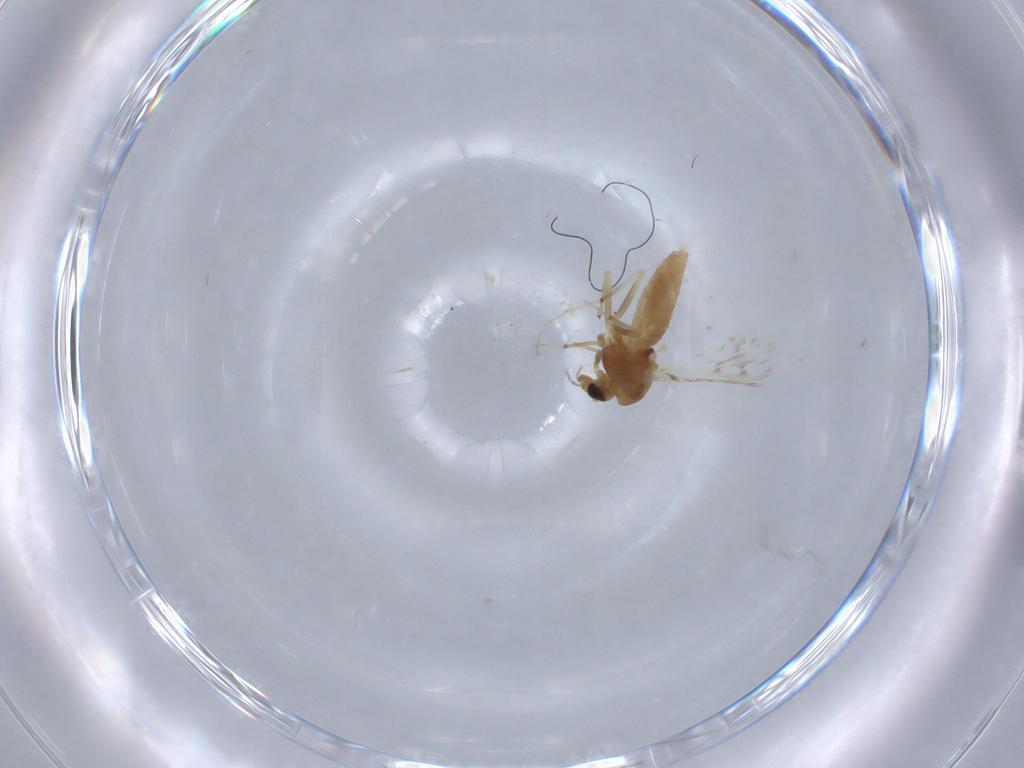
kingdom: Animalia
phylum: Arthropoda
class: Insecta
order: Diptera
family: Chironomidae
